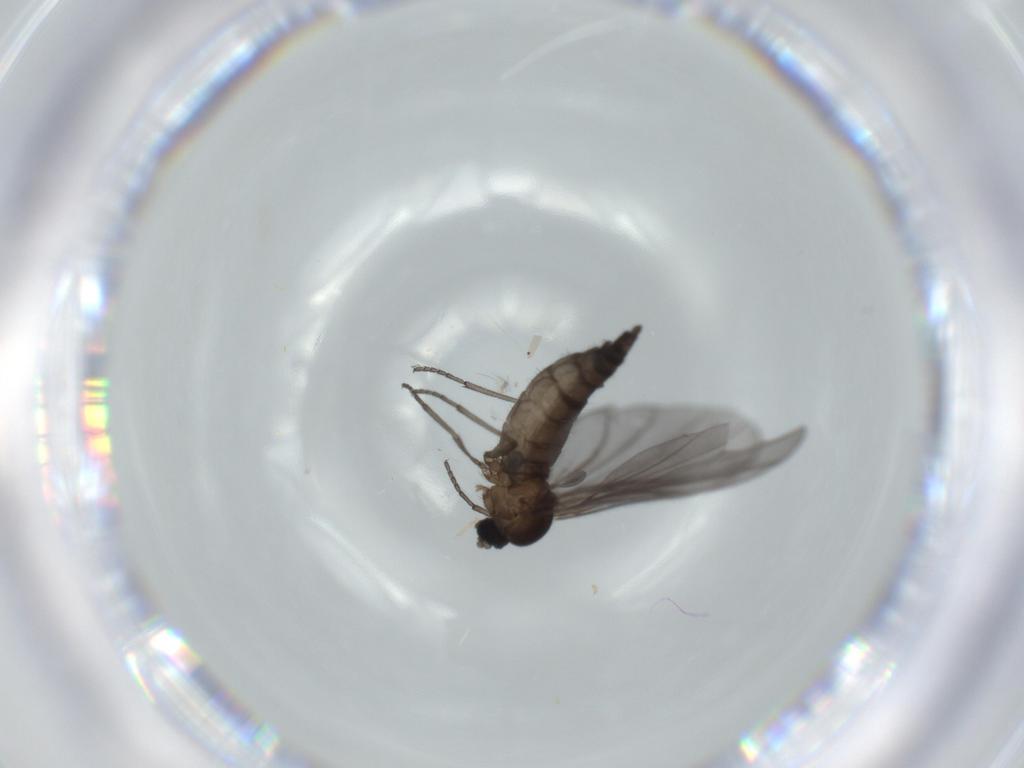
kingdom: Animalia
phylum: Arthropoda
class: Insecta
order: Diptera
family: Sciaridae
